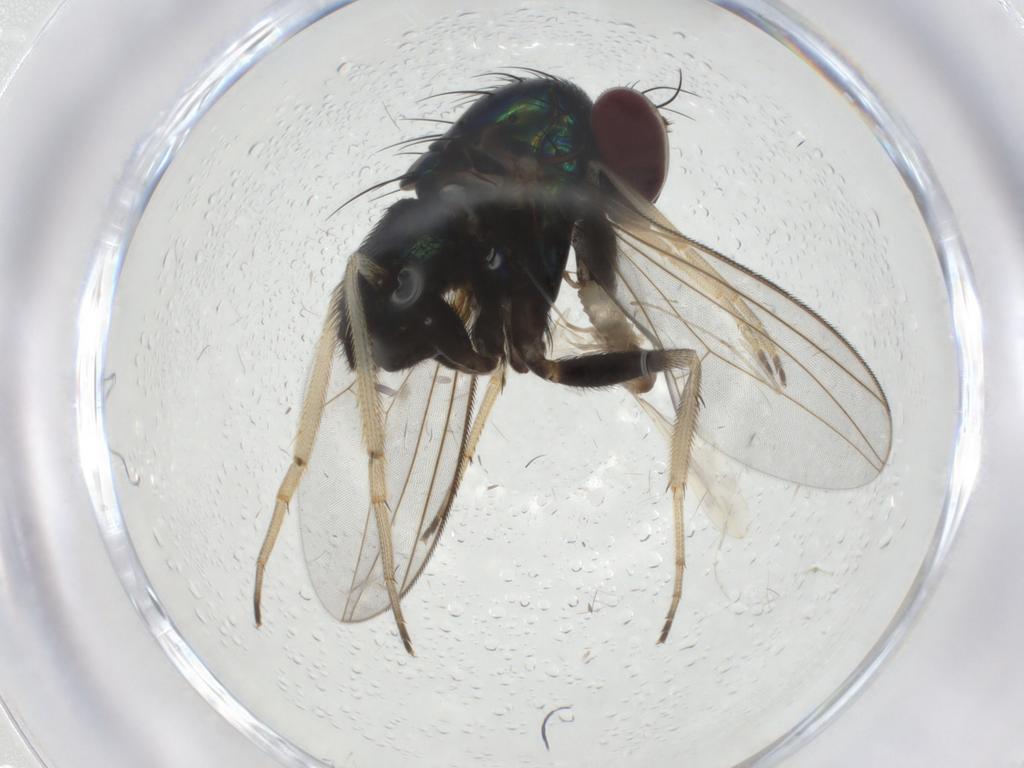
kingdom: Animalia
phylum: Arthropoda
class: Insecta
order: Diptera
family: Dolichopodidae
